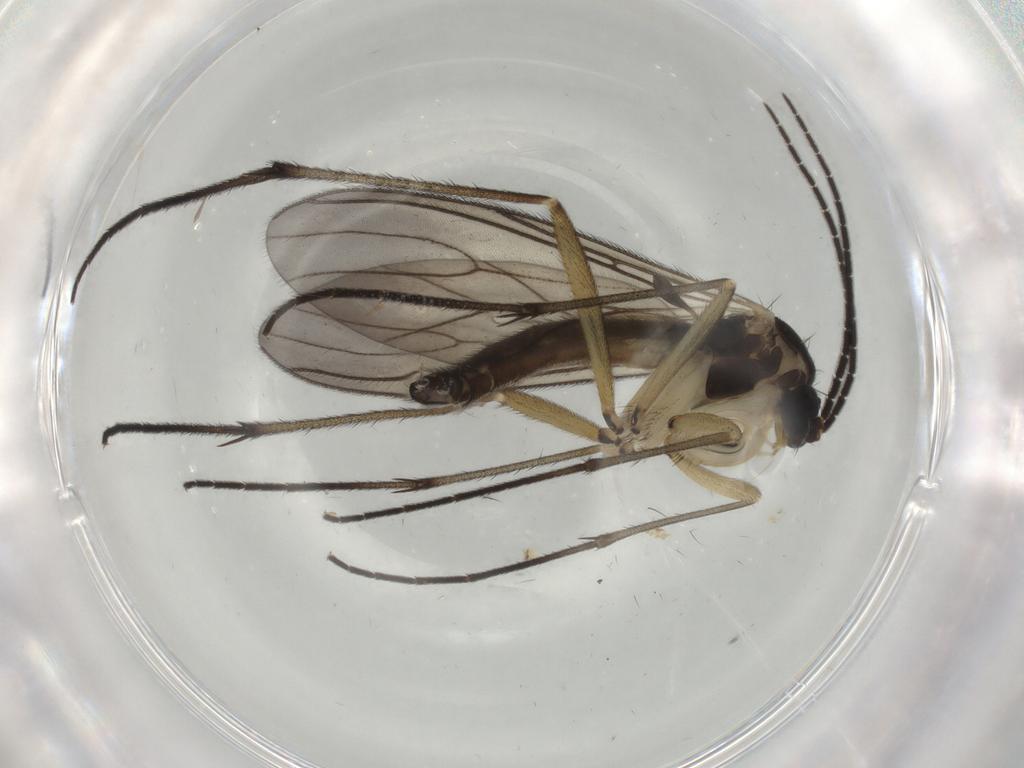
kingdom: Animalia
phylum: Arthropoda
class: Insecta
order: Diptera
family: Sciaridae
